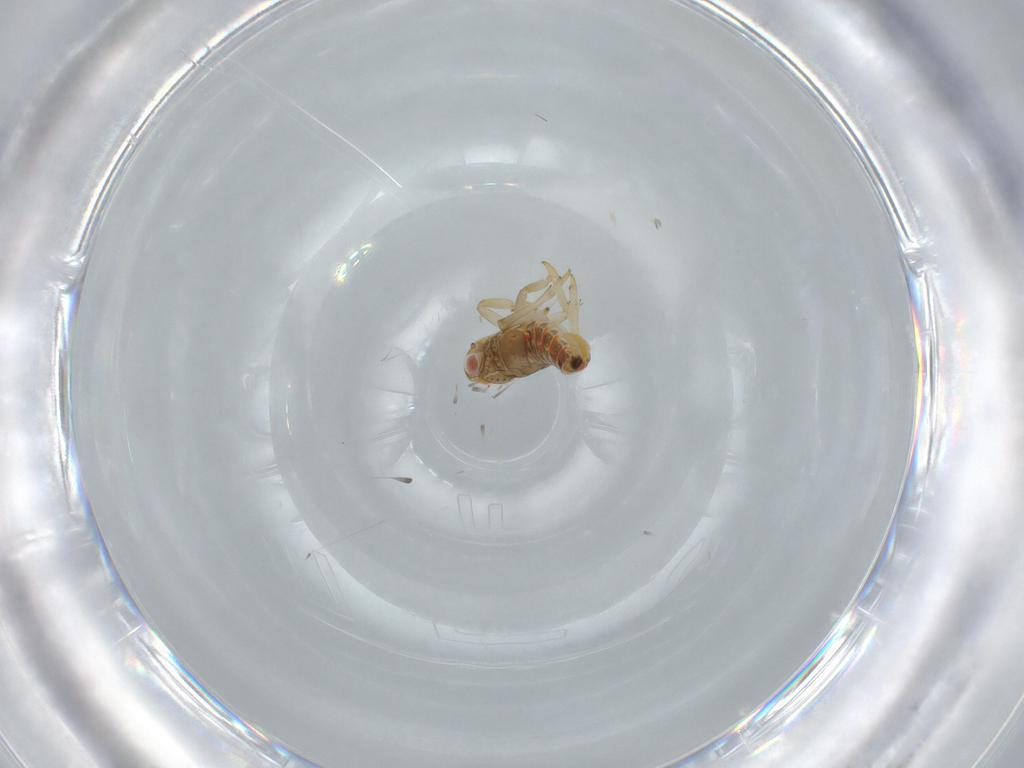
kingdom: Animalia
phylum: Arthropoda
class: Insecta
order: Hemiptera
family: Issidae
